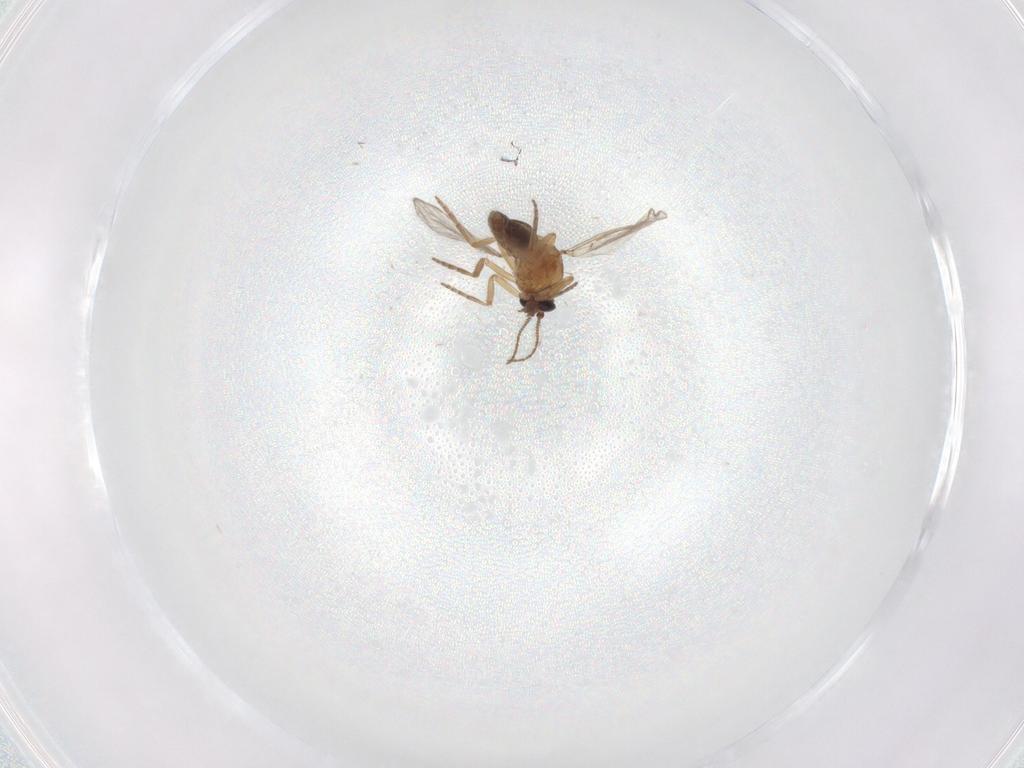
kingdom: Animalia
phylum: Arthropoda
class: Insecta
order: Diptera
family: Chironomidae
